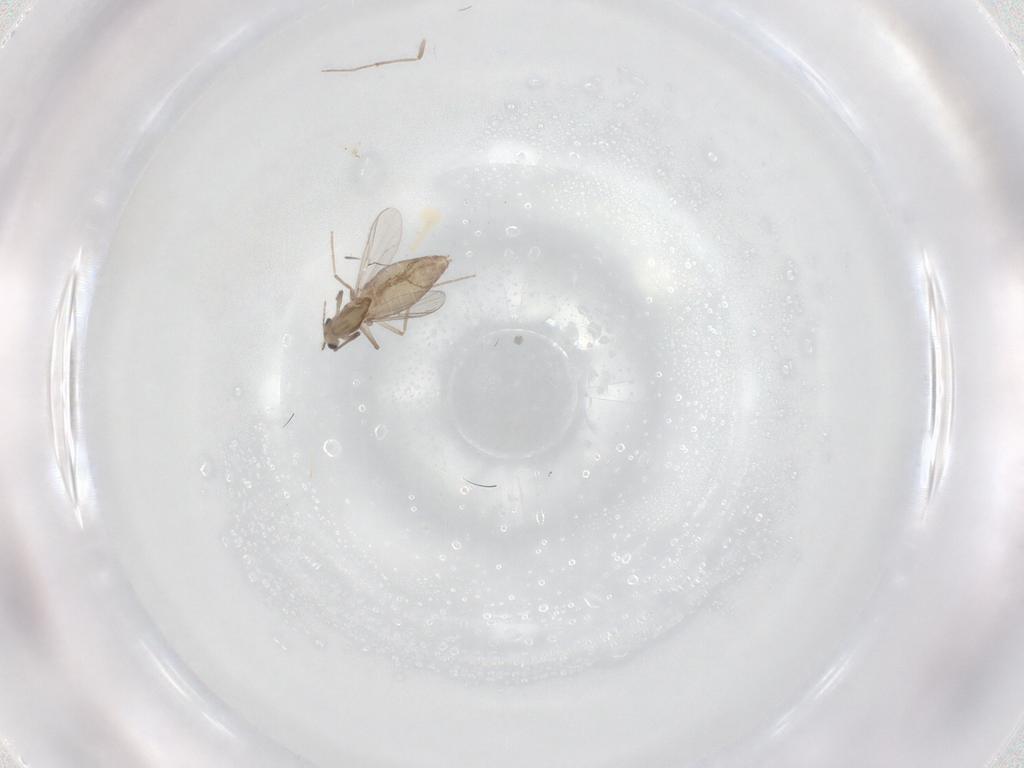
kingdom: Animalia
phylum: Arthropoda
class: Insecta
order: Diptera
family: Chironomidae
